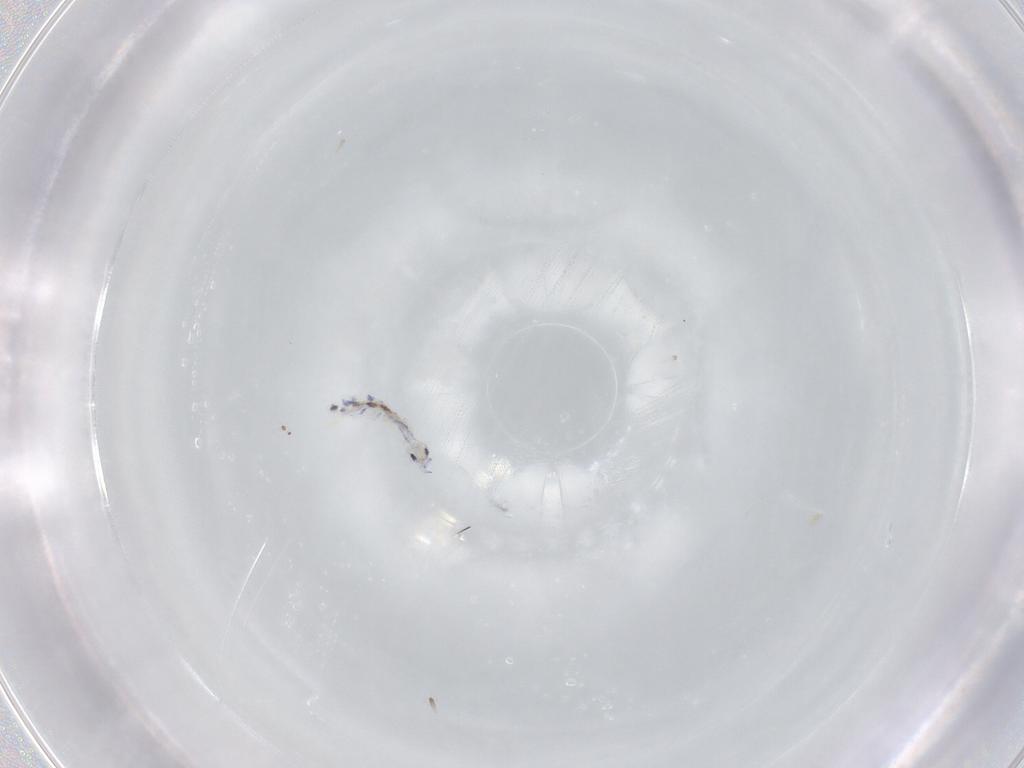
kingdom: Animalia
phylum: Arthropoda
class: Collembola
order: Entomobryomorpha
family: Entomobryidae
